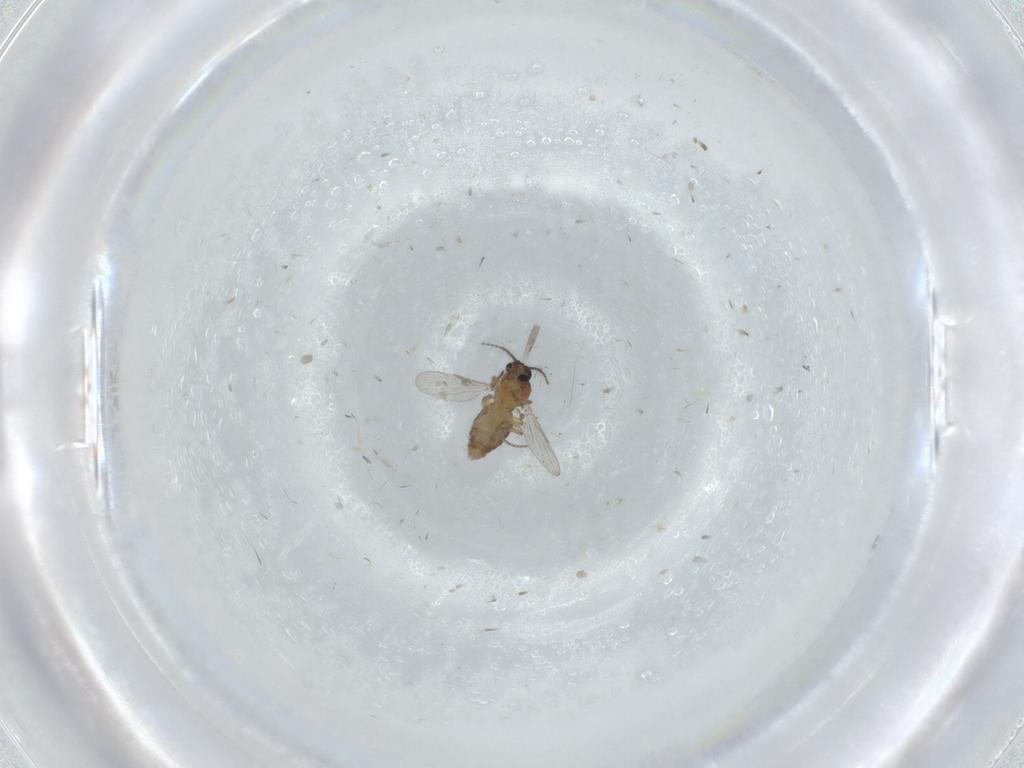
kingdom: Animalia
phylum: Arthropoda
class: Insecta
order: Diptera
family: Ceratopogonidae
